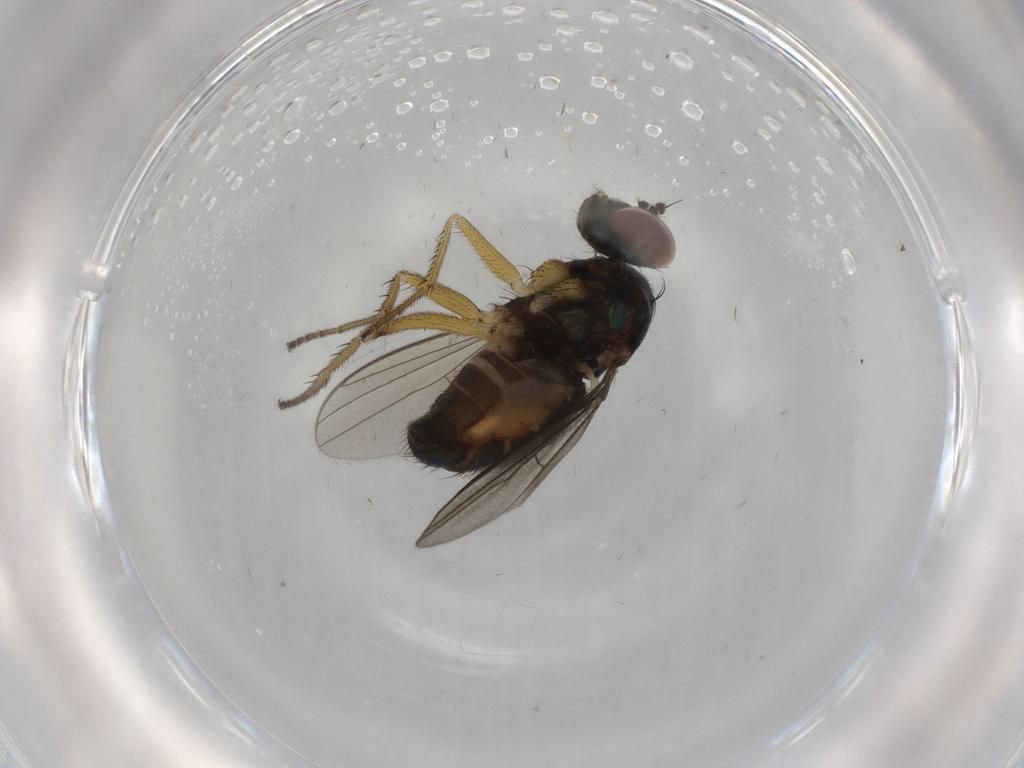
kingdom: Animalia
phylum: Arthropoda
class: Insecta
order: Diptera
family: Dolichopodidae
